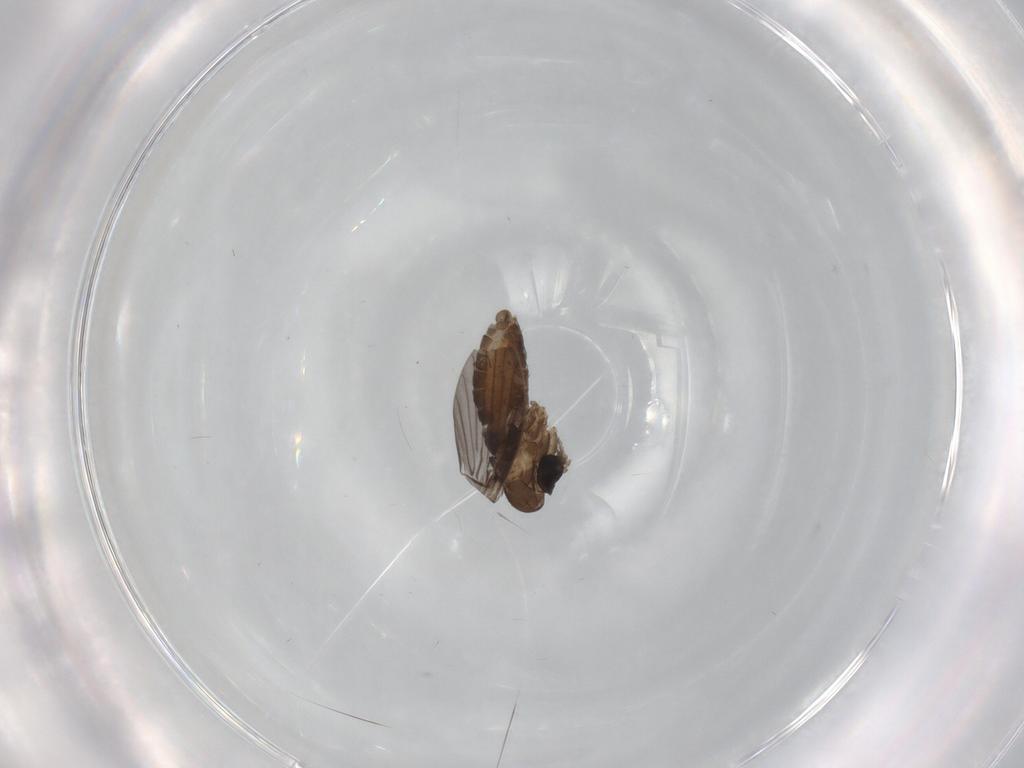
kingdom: Animalia
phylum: Arthropoda
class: Insecta
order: Diptera
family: Psychodidae
